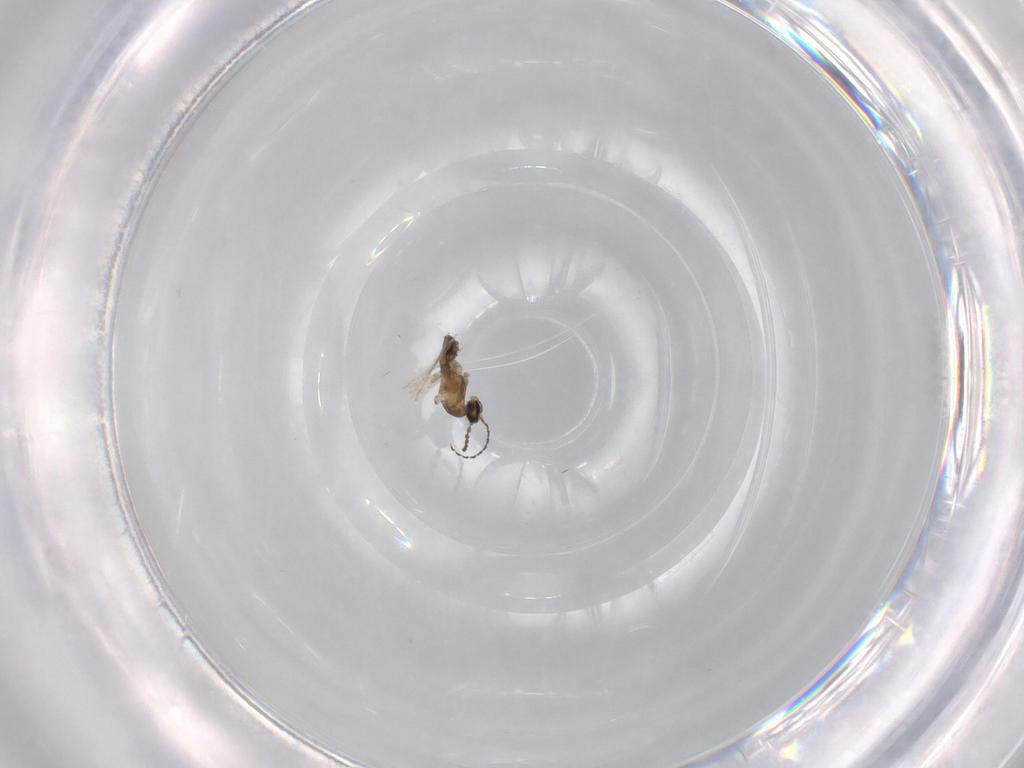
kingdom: Animalia
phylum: Arthropoda
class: Insecta
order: Diptera
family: Cecidomyiidae
